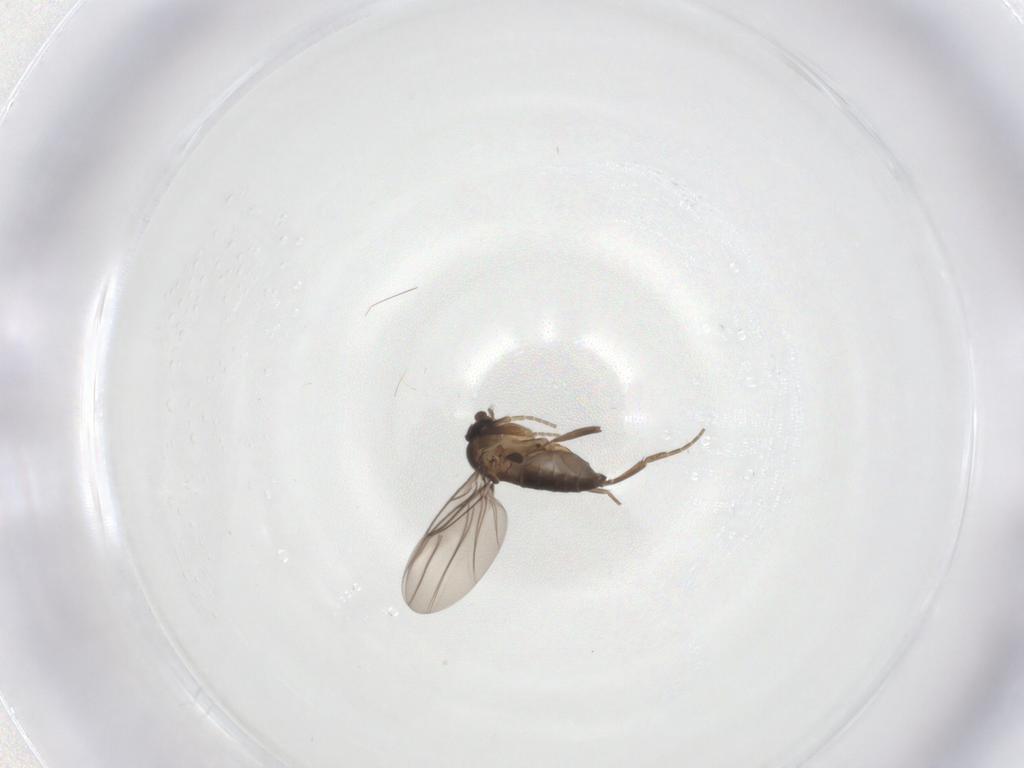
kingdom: Animalia
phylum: Arthropoda
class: Insecta
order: Diptera
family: Phoridae
